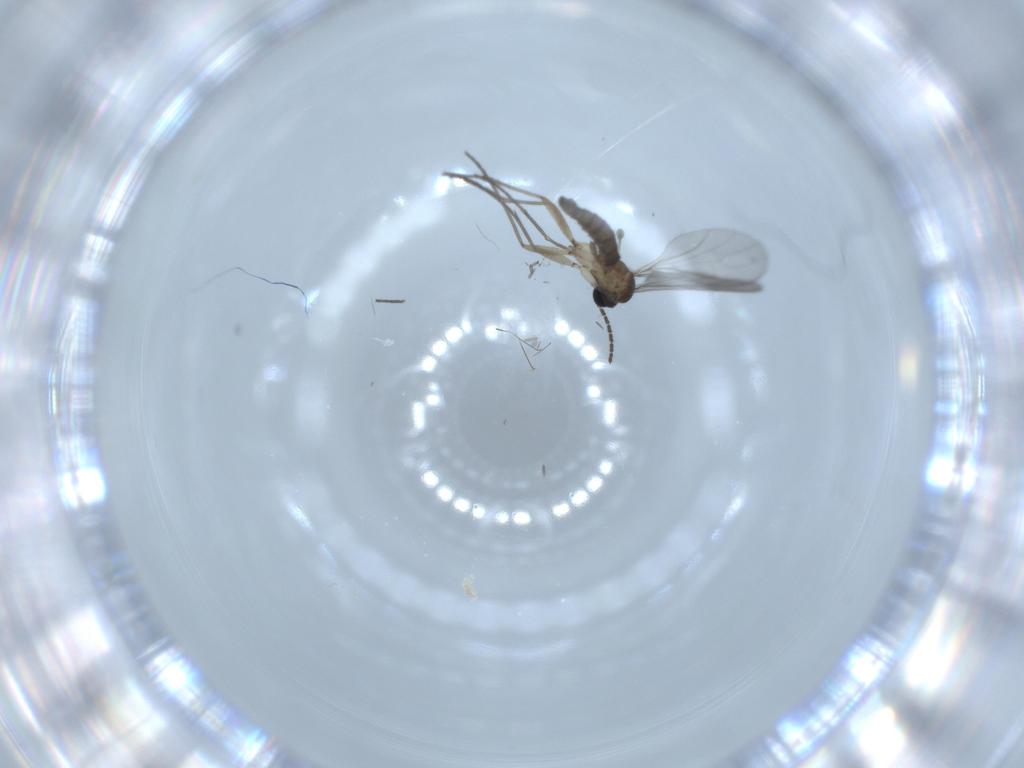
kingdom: Animalia
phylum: Arthropoda
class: Insecta
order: Diptera
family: Sciaridae
